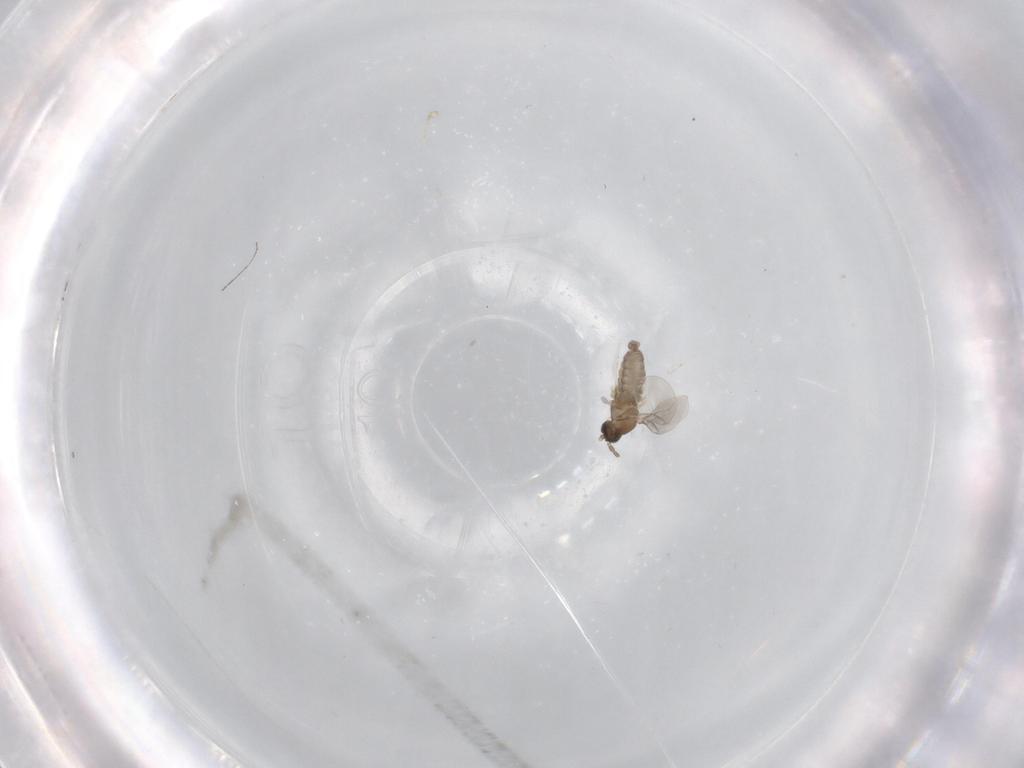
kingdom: Animalia
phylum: Arthropoda
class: Insecta
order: Diptera
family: Cecidomyiidae
